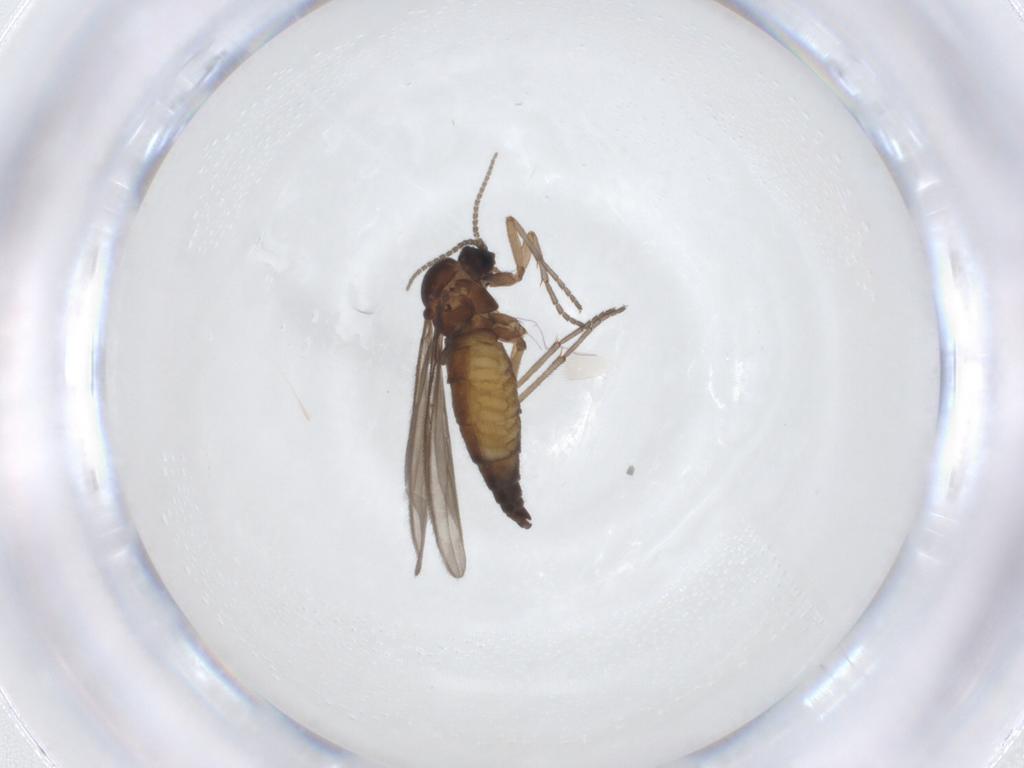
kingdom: Animalia
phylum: Arthropoda
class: Insecta
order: Diptera
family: Sciaridae
